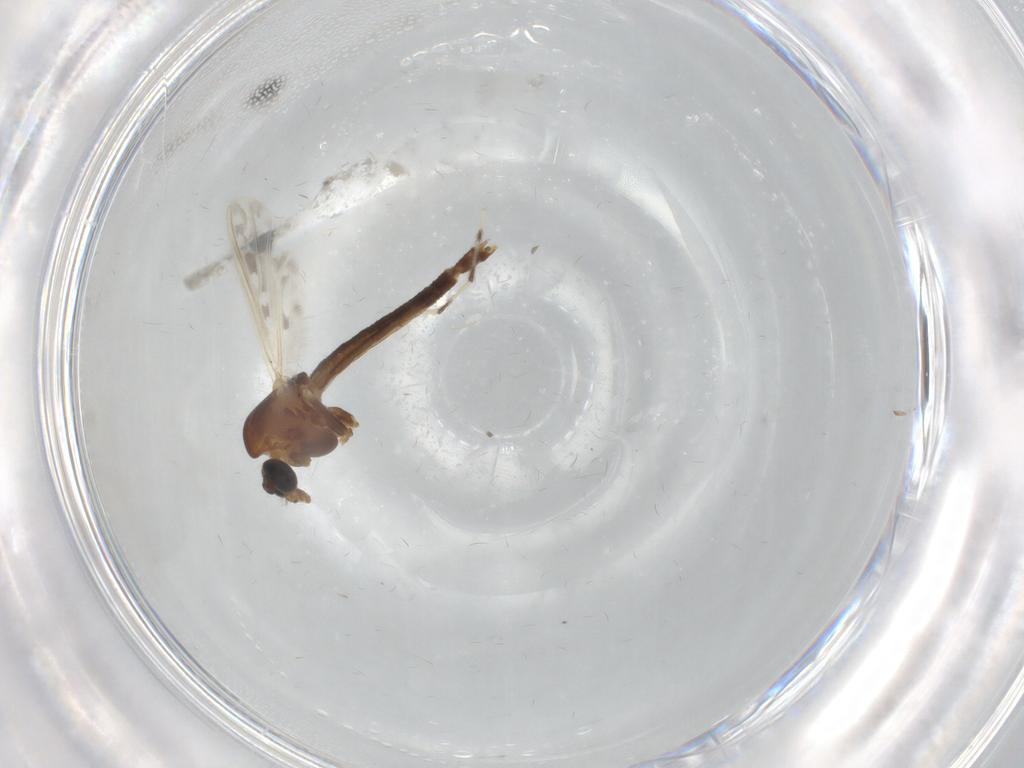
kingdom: Animalia
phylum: Arthropoda
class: Insecta
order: Diptera
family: Chironomidae
